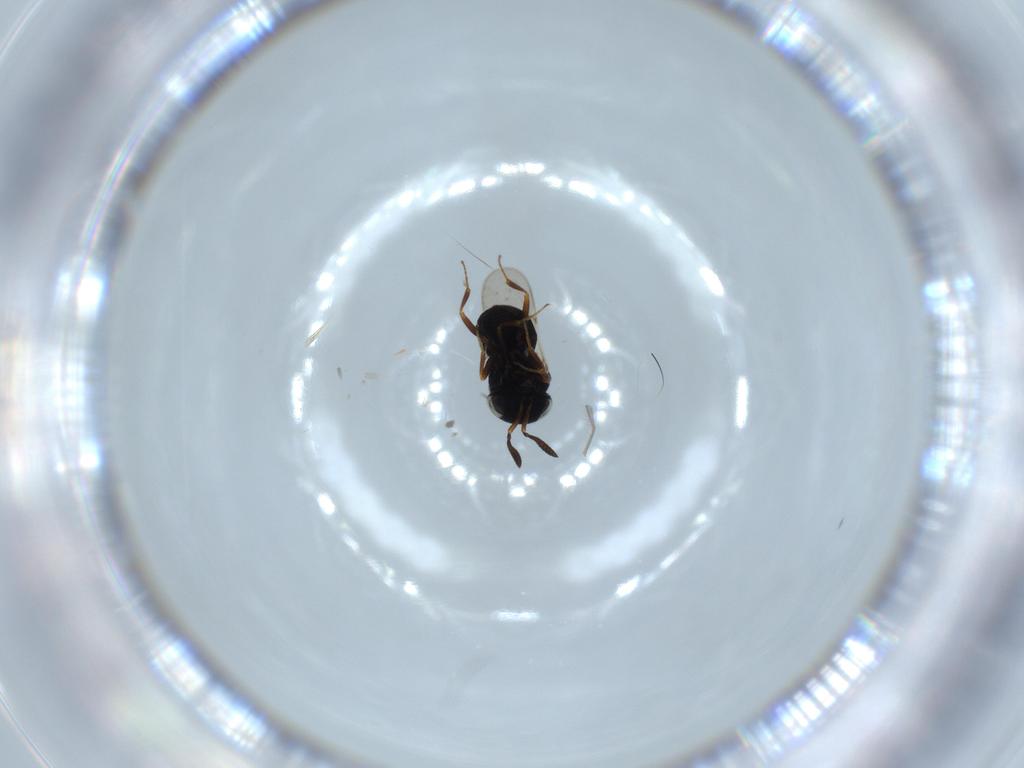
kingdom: Animalia
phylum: Arthropoda
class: Insecta
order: Hymenoptera
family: Scelionidae
